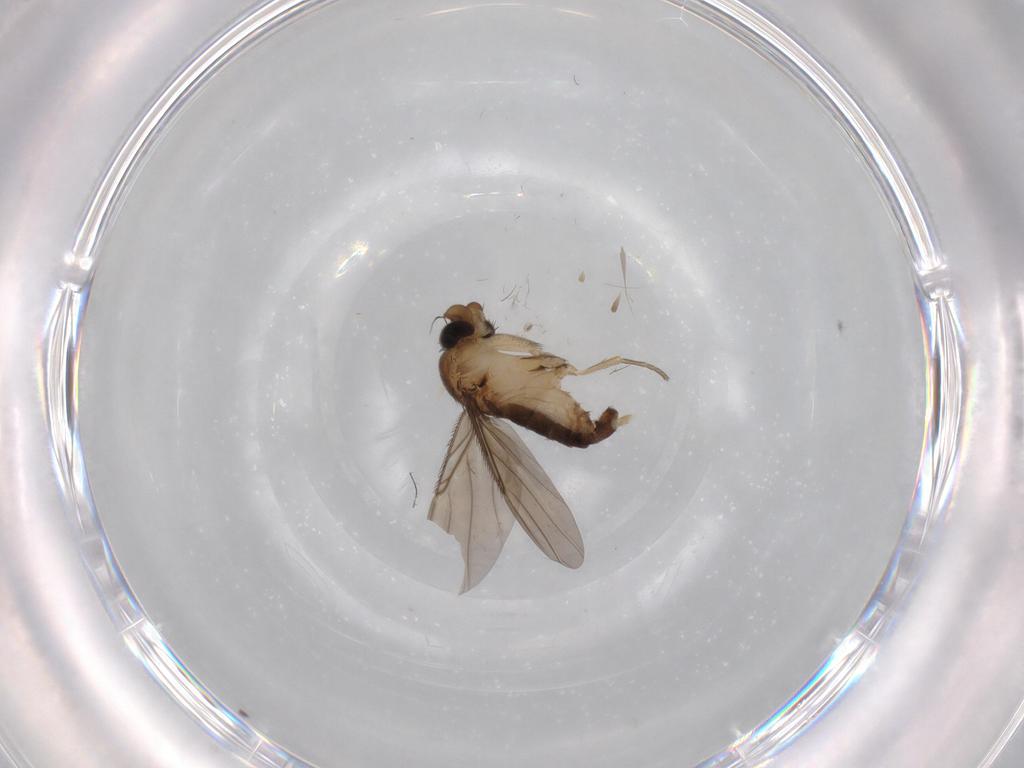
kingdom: Animalia
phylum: Arthropoda
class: Insecta
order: Diptera
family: Phoridae
